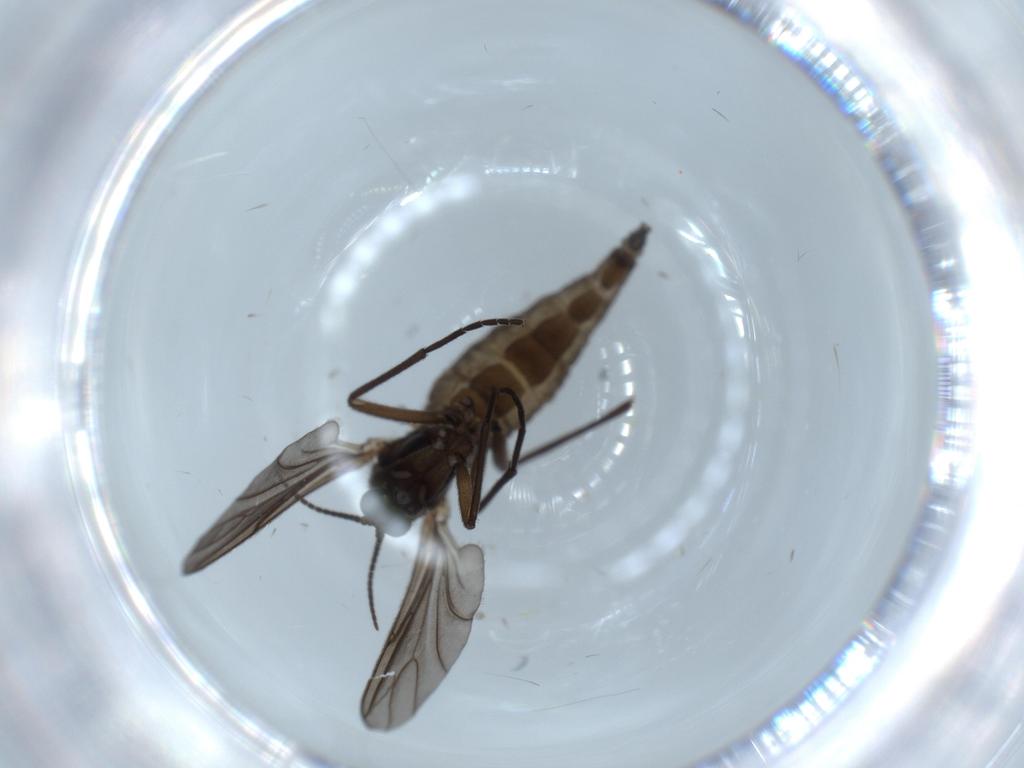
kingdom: Animalia
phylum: Arthropoda
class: Insecta
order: Diptera
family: Sciaridae
